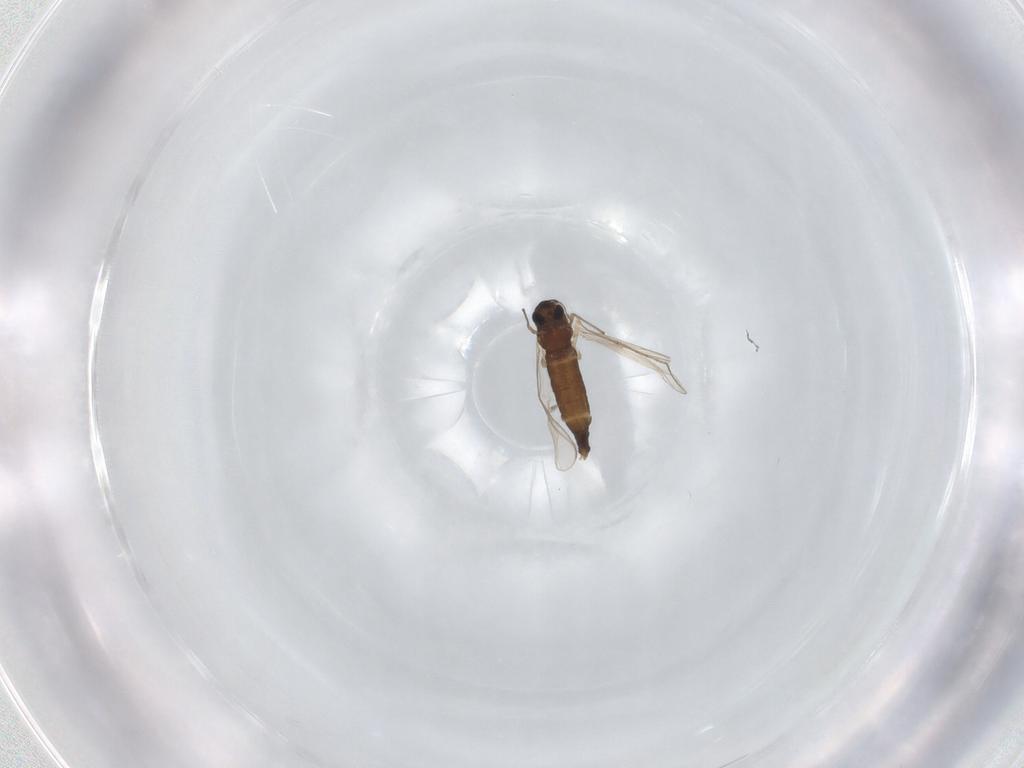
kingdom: Animalia
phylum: Arthropoda
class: Insecta
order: Diptera
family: Chironomidae
